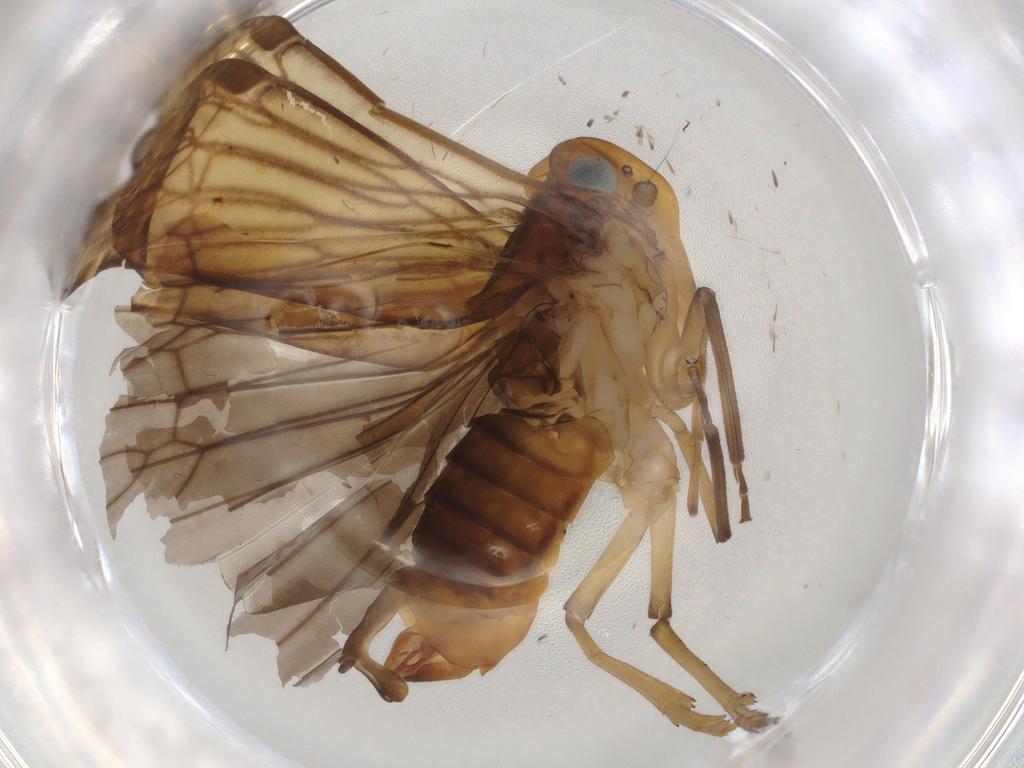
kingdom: Animalia
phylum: Arthropoda
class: Insecta
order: Hemiptera
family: Cixiidae
